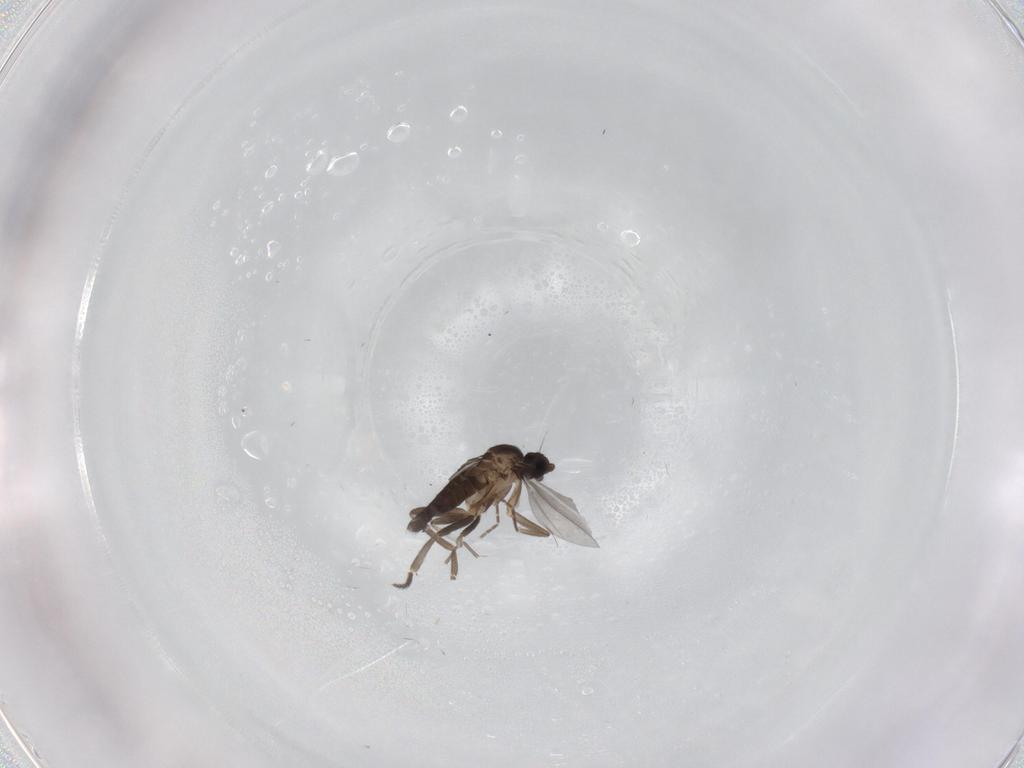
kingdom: Animalia
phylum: Arthropoda
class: Insecta
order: Diptera
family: Phoridae
